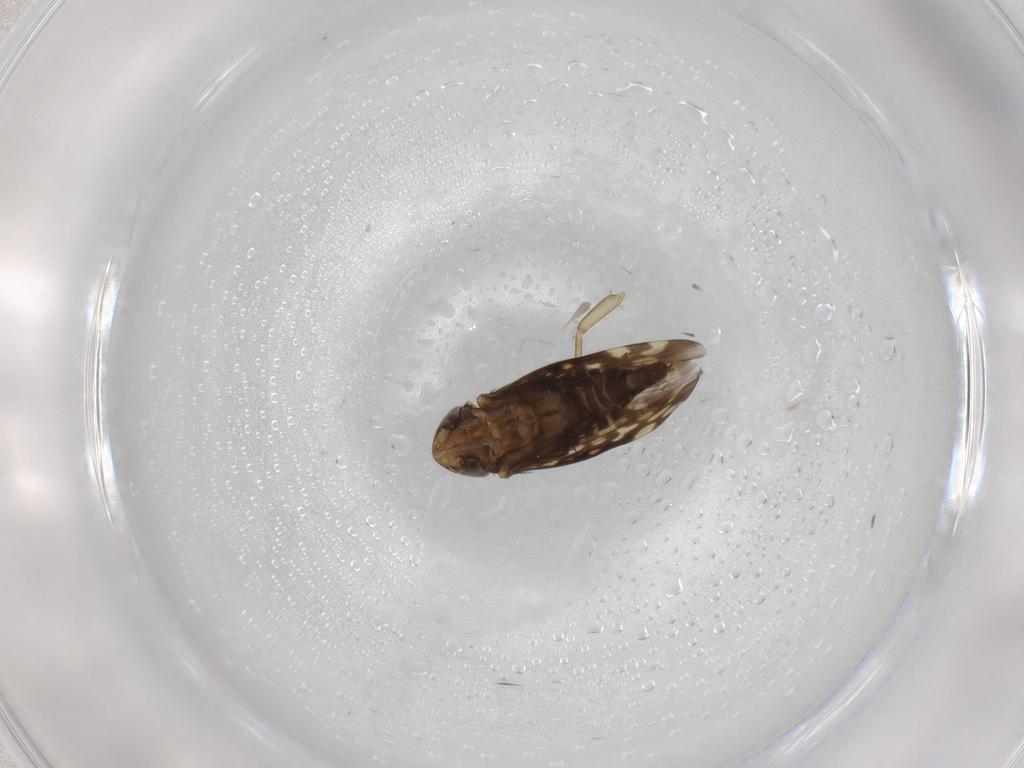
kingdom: Animalia
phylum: Arthropoda
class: Insecta
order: Hemiptera
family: Cicadellidae
